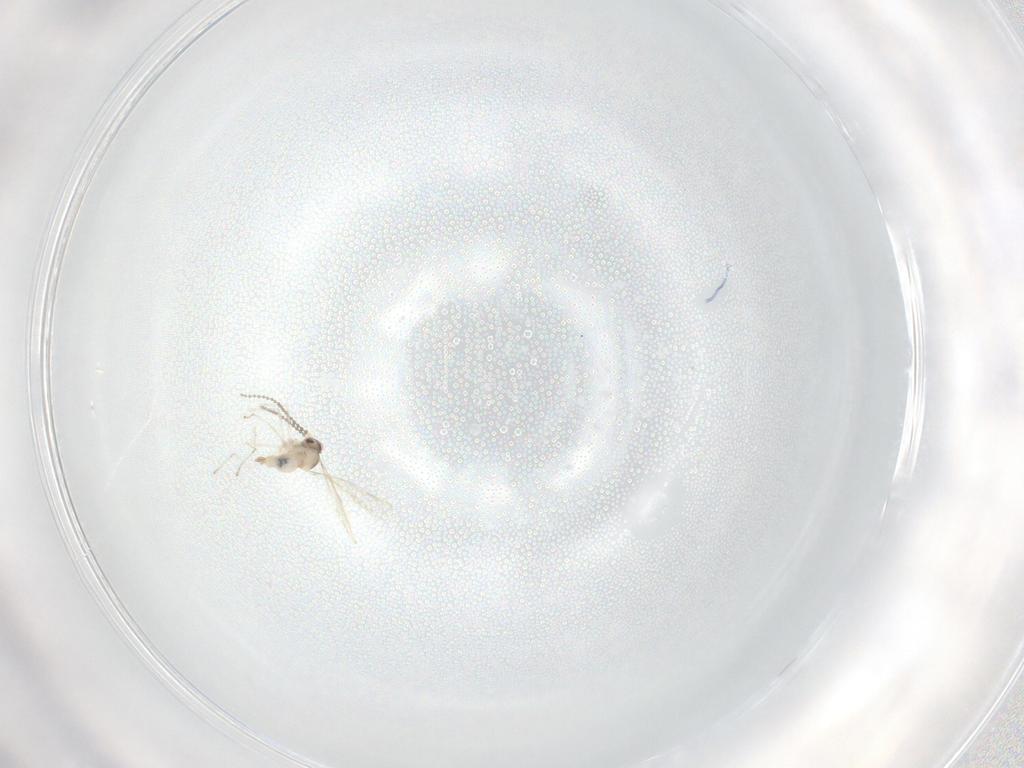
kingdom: Animalia
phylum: Arthropoda
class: Insecta
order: Diptera
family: Cecidomyiidae
